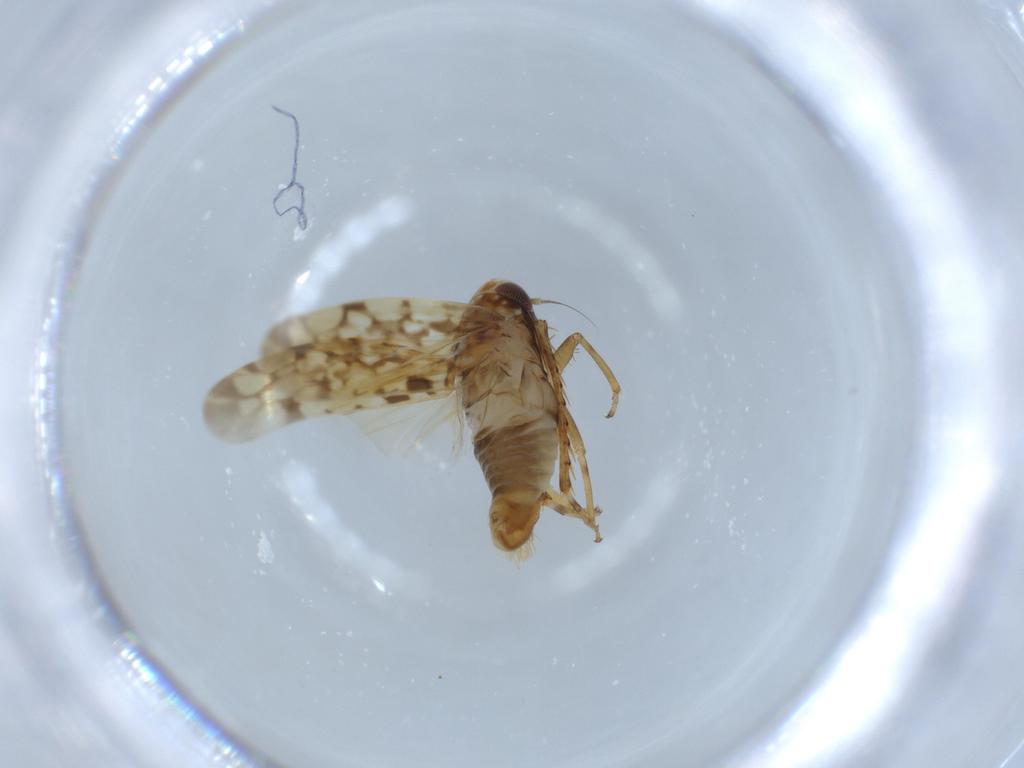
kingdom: Animalia
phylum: Arthropoda
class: Insecta
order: Hemiptera
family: Cicadellidae
